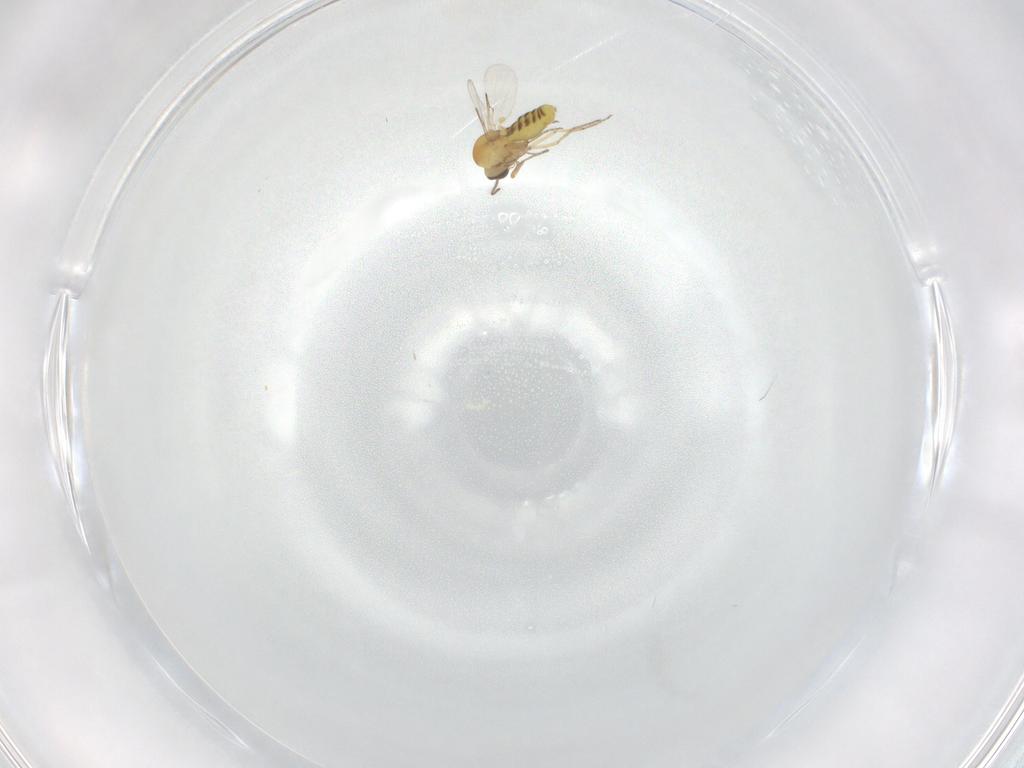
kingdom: Animalia
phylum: Arthropoda
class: Insecta
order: Diptera
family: Ceratopogonidae
